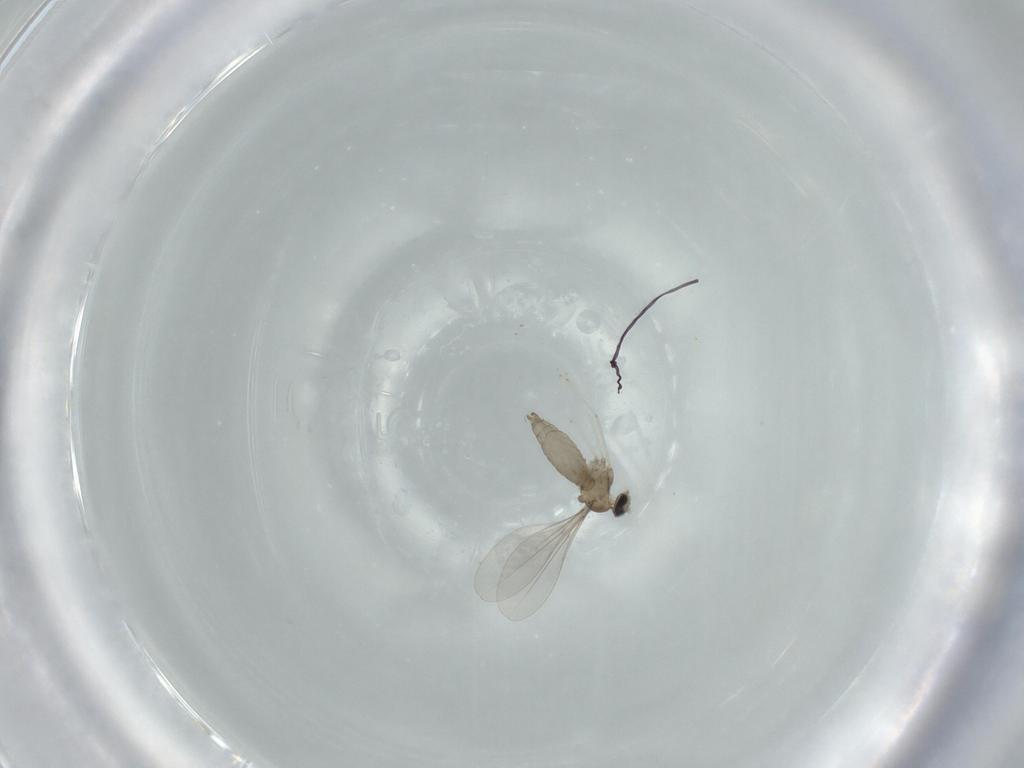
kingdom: Animalia
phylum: Arthropoda
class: Insecta
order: Diptera
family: Cecidomyiidae
